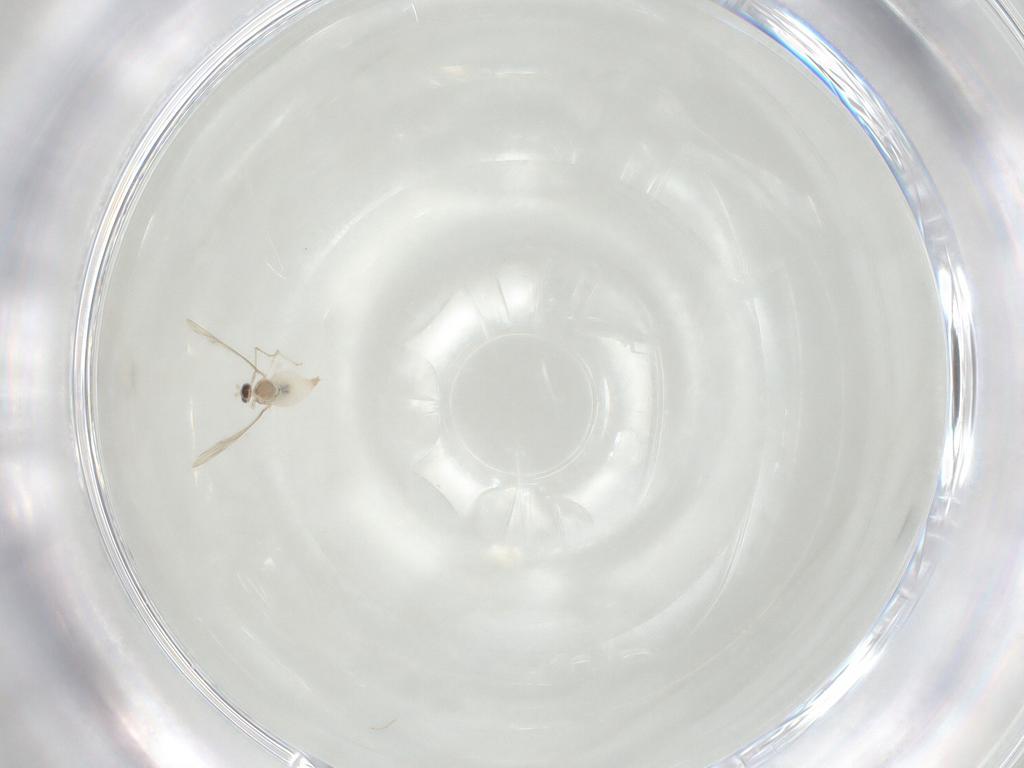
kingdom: Animalia
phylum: Arthropoda
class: Insecta
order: Diptera
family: Cecidomyiidae
